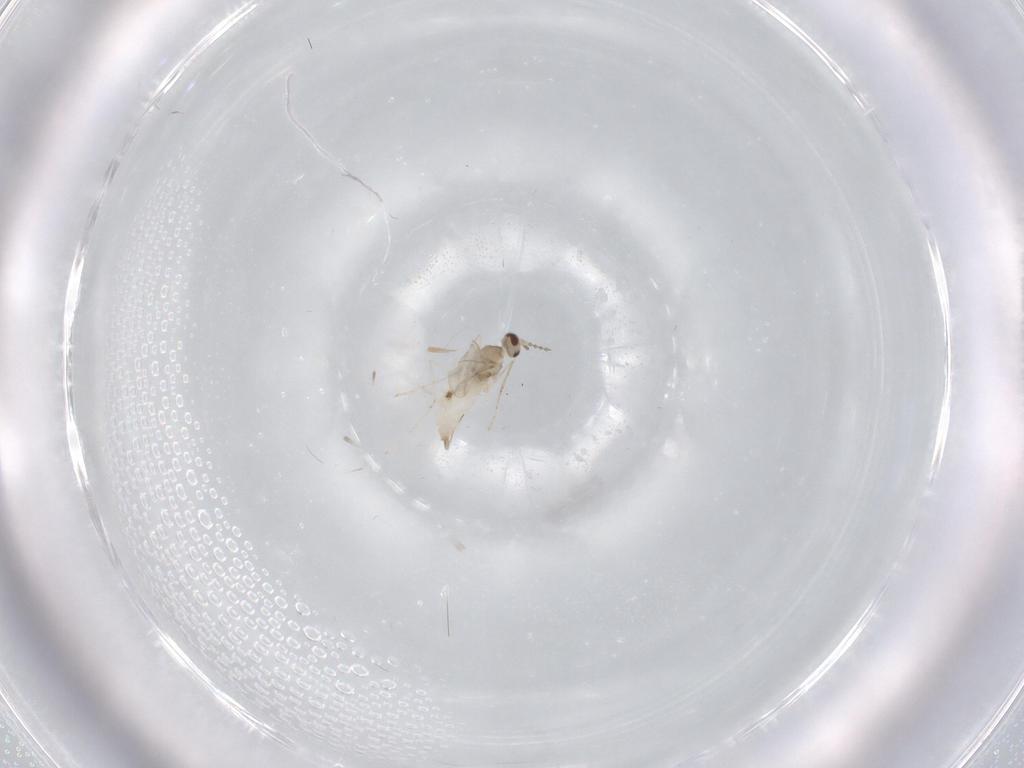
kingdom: Animalia
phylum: Arthropoda
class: Insecta
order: Diptera
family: Cecidomyiidae
